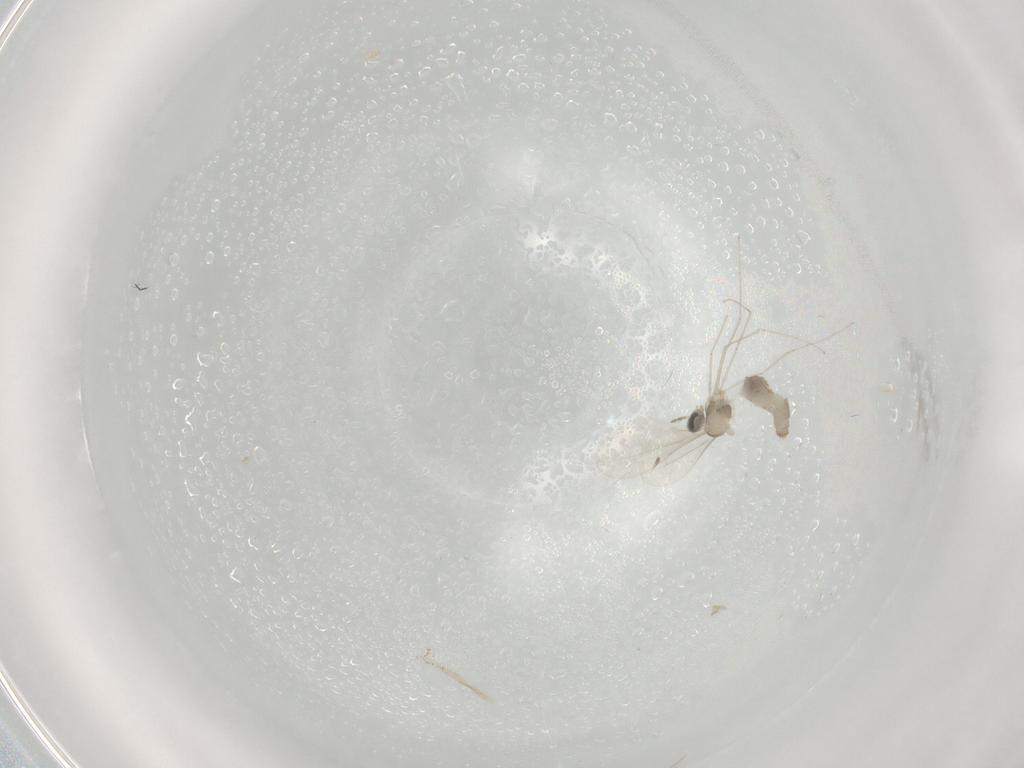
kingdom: Animalia
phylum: Arthropoda
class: Insecta
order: Diptera
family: Cecidomyiidae
